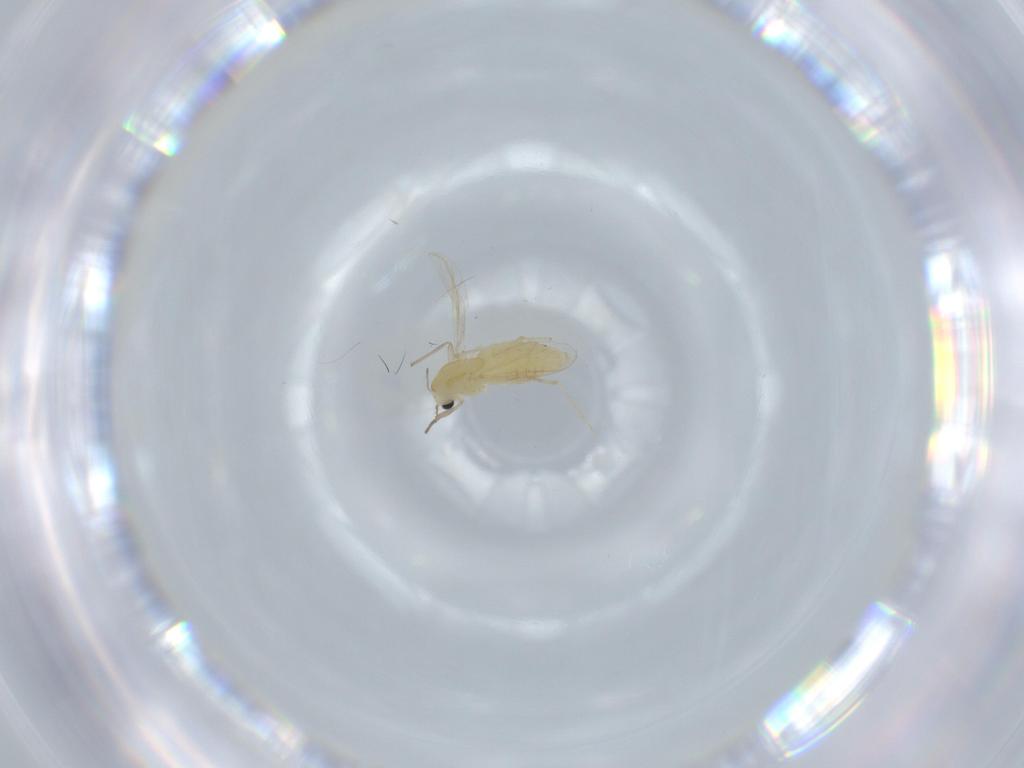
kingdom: Animalia
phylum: Arthropoda
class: Insecta
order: Diptera
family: Chironomidae
